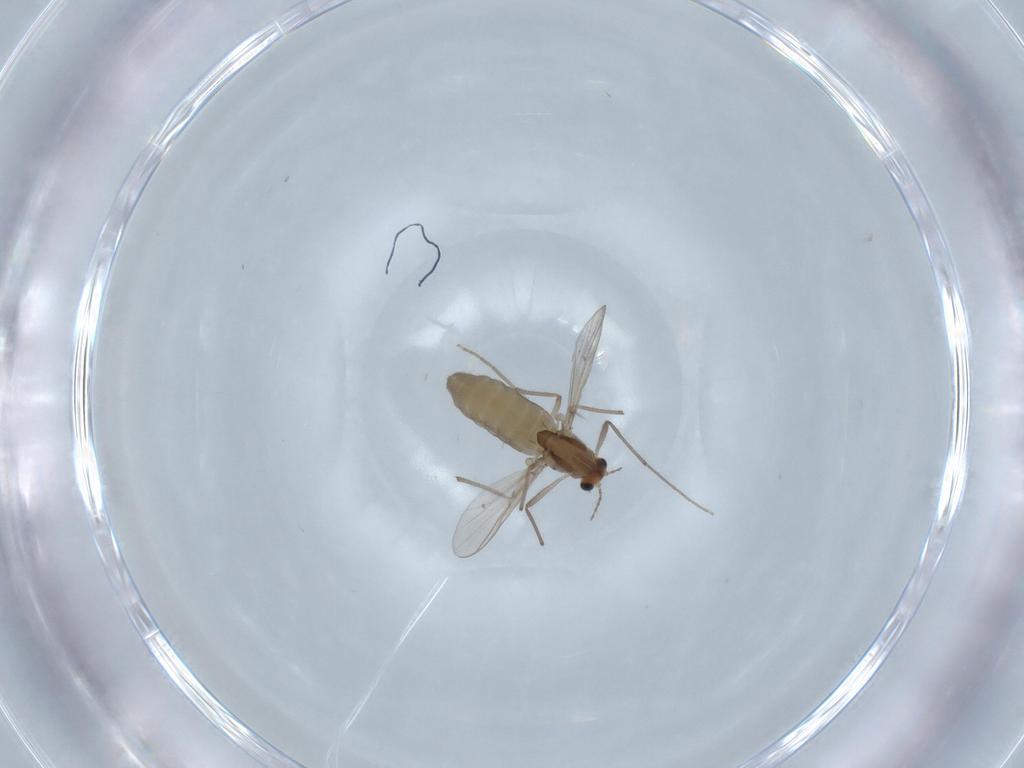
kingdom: Animalia
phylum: Arthropoda
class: Insecta
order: Diptera
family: Chironomidae
